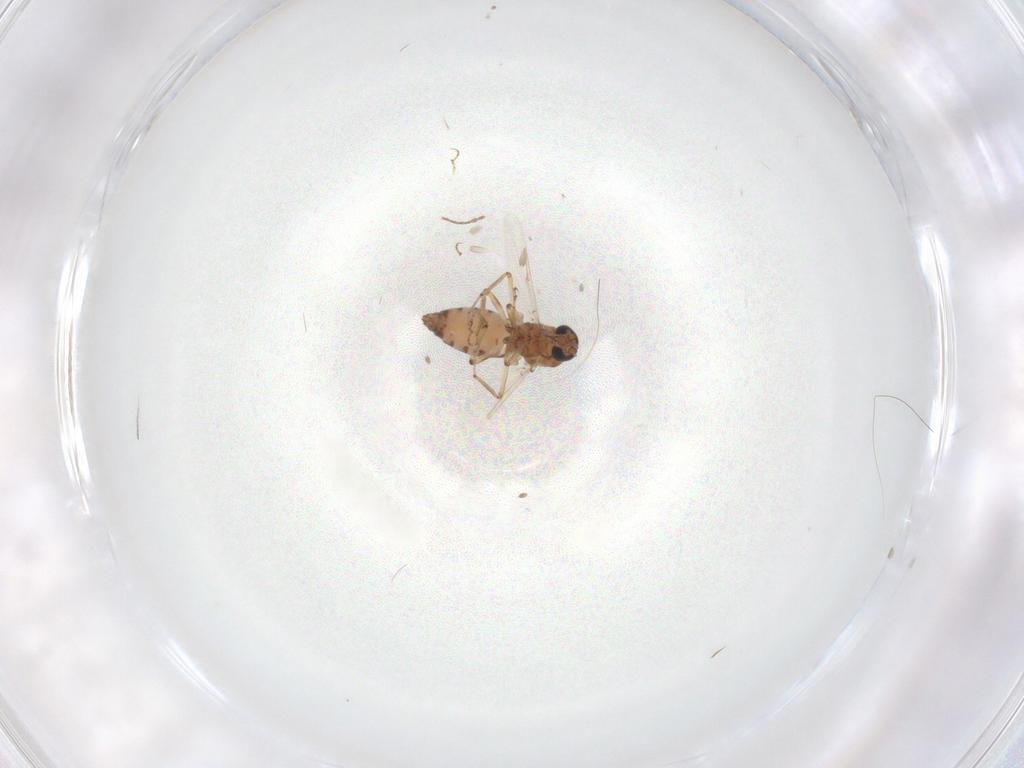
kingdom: Animalia
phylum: Arthropoda
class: Insecta
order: Diptera
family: Ceratopogonidae
